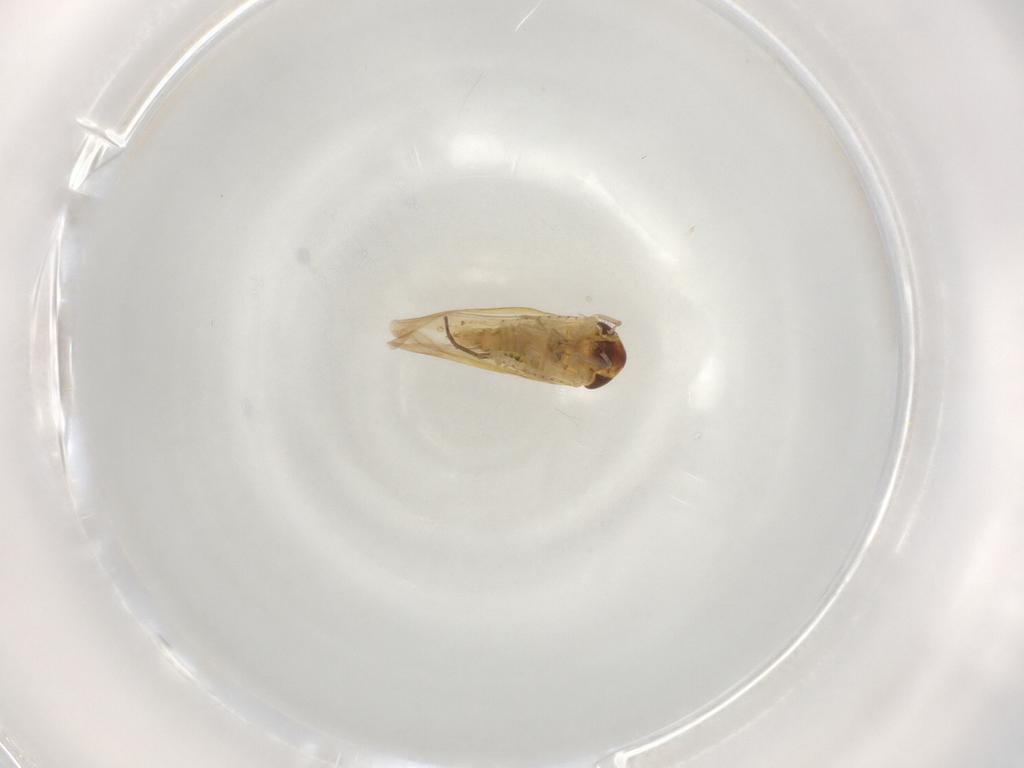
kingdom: Animalia
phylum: Arthropoda
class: Insecta
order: Hemiptera
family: Cicadellidae
